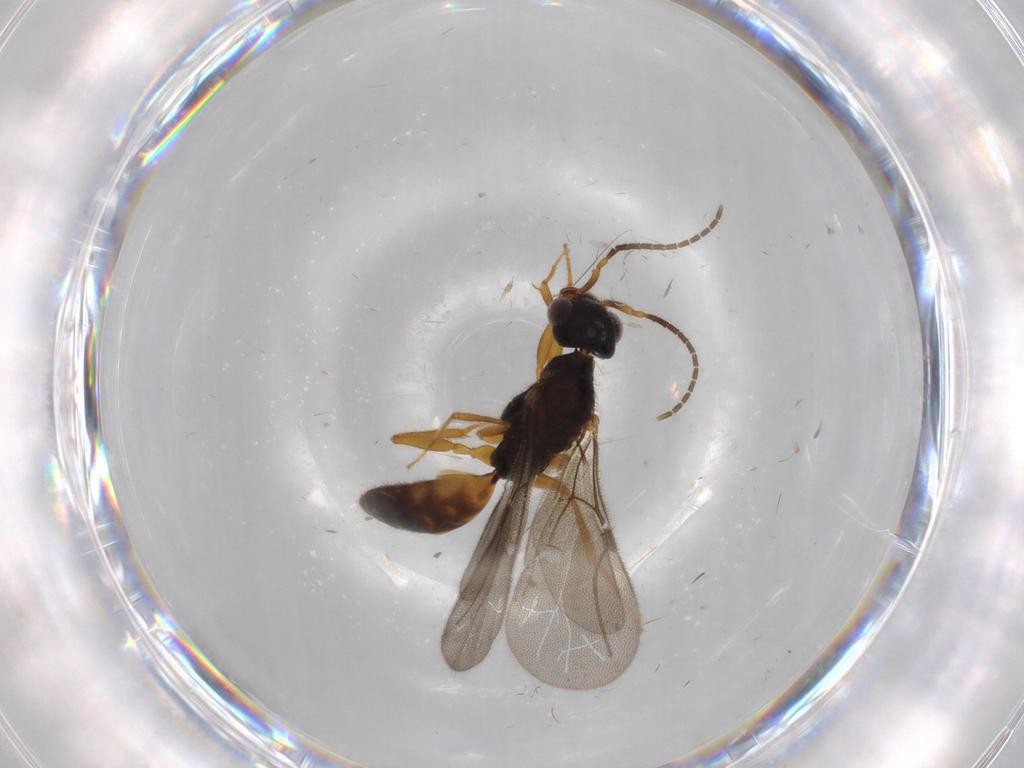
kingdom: Animalia
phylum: Arthropoda
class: Insecta
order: Hymenoptera
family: Bethylidae
